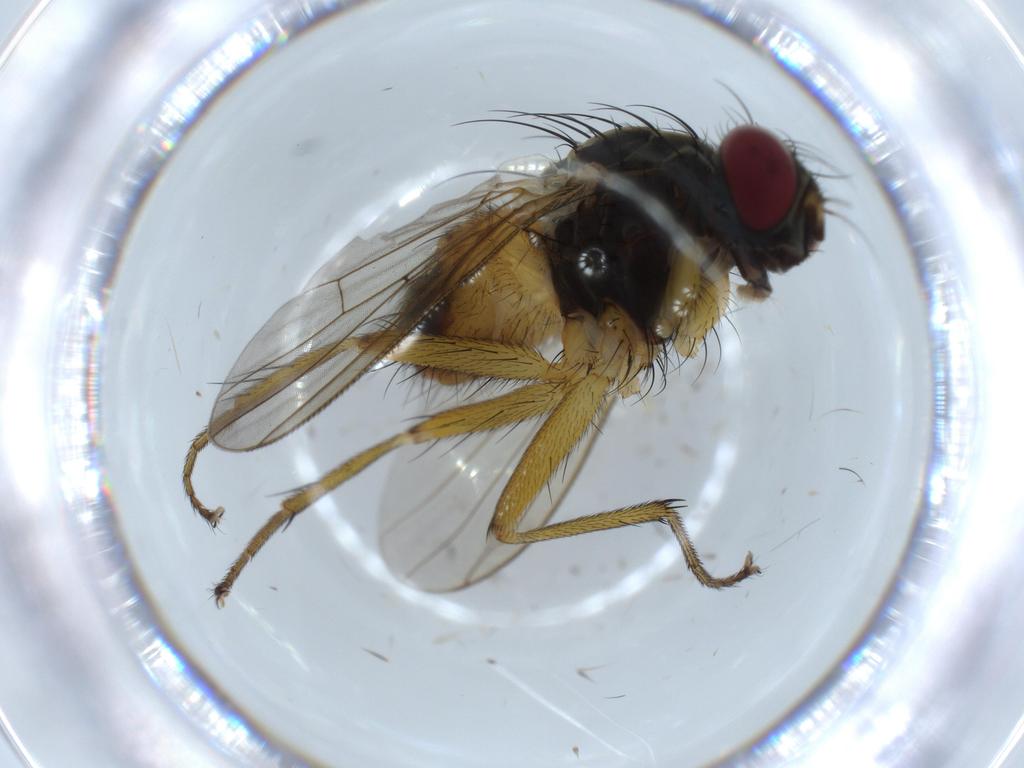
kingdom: Animalia
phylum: Arthropoda
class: Insecta
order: Diptera
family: Muscidae
